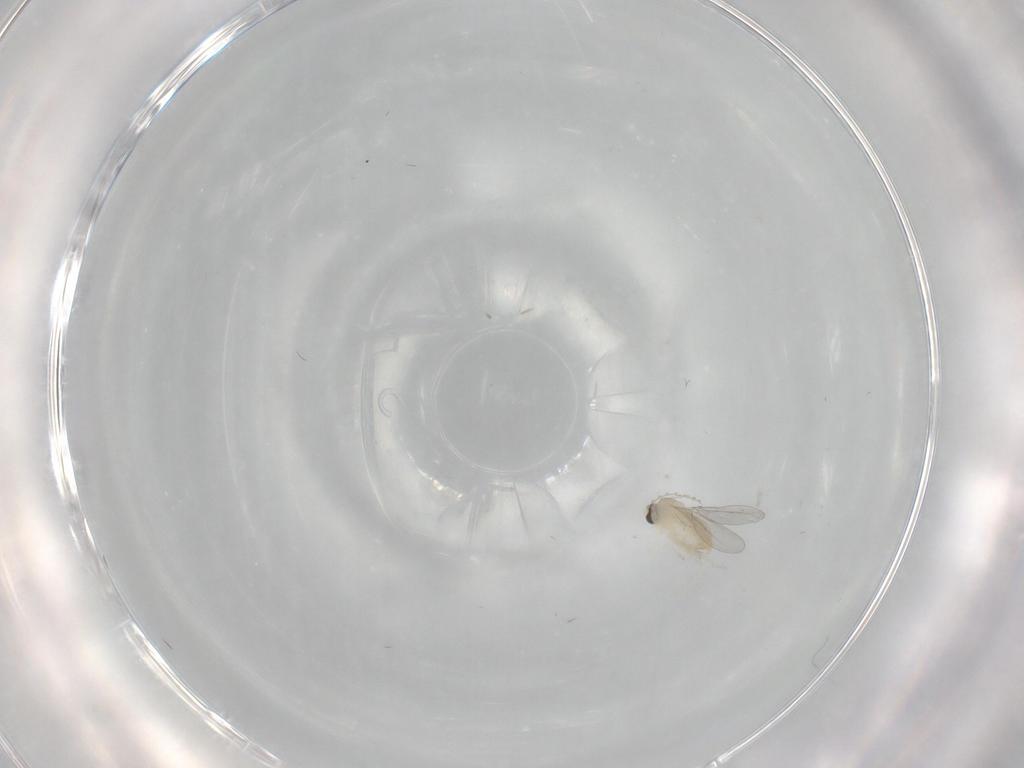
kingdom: Animalia
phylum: Arthropoda
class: Insecta
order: Diptera
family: Cecidomyiidae
